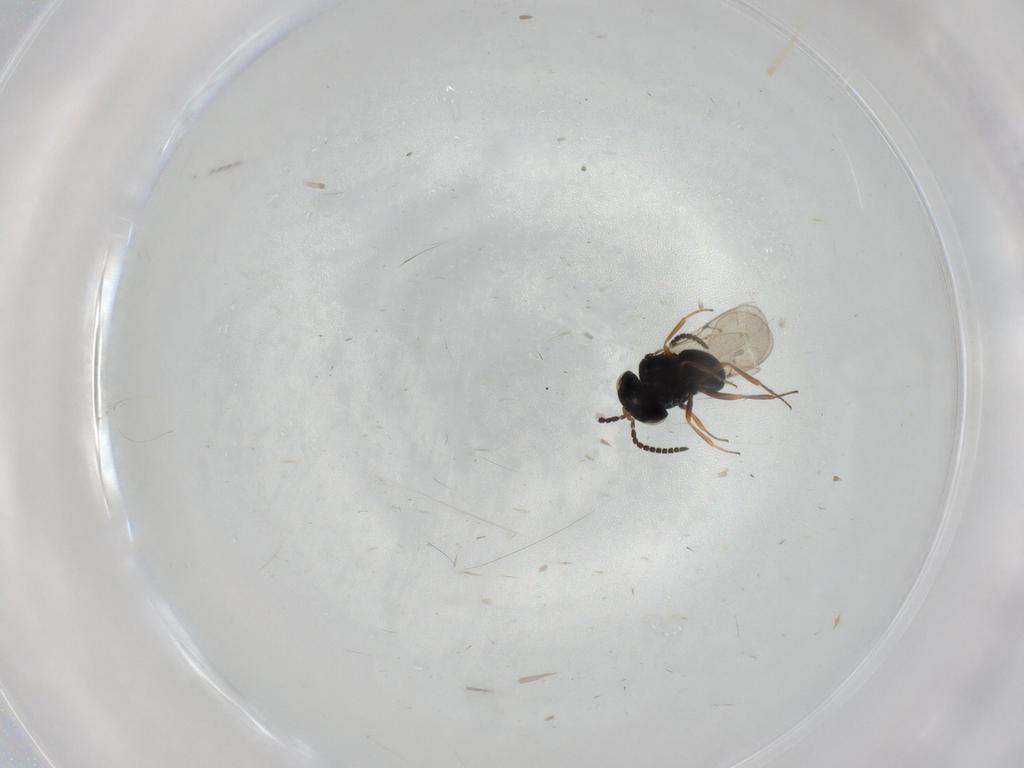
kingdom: Animalia
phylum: Arthropoda
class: Insecta
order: Hymenoptera
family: Scelionidae
